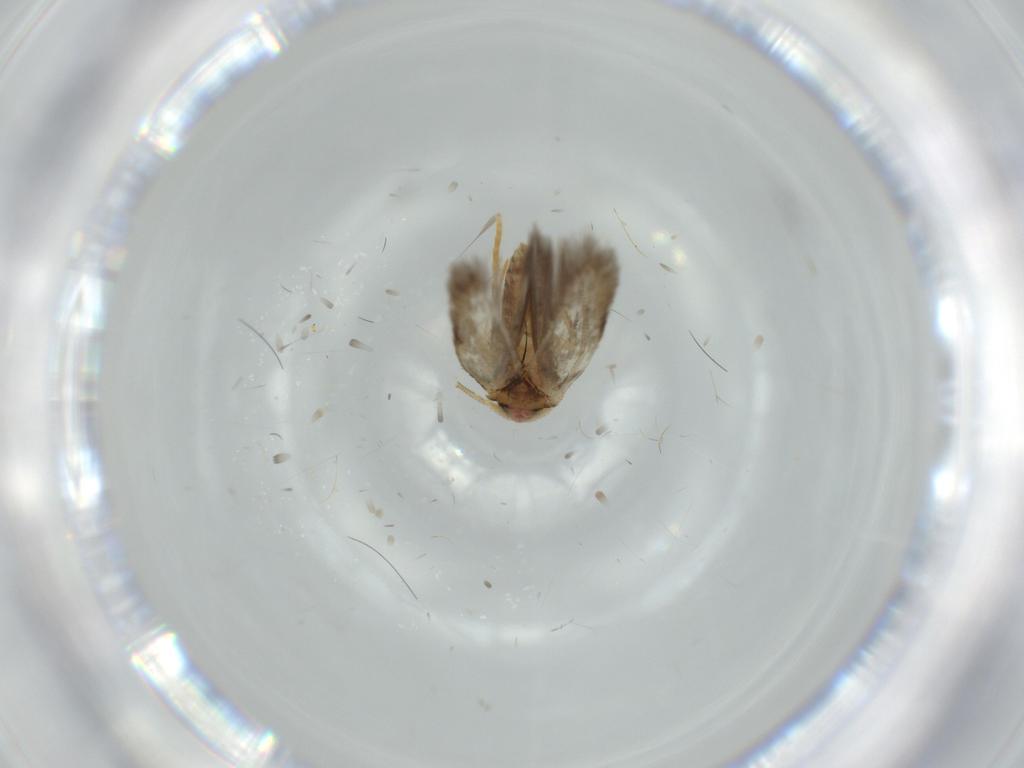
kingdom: Animalia
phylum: Arthropoda
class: Insecta
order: Lepidoptera
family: Nepticulidae
